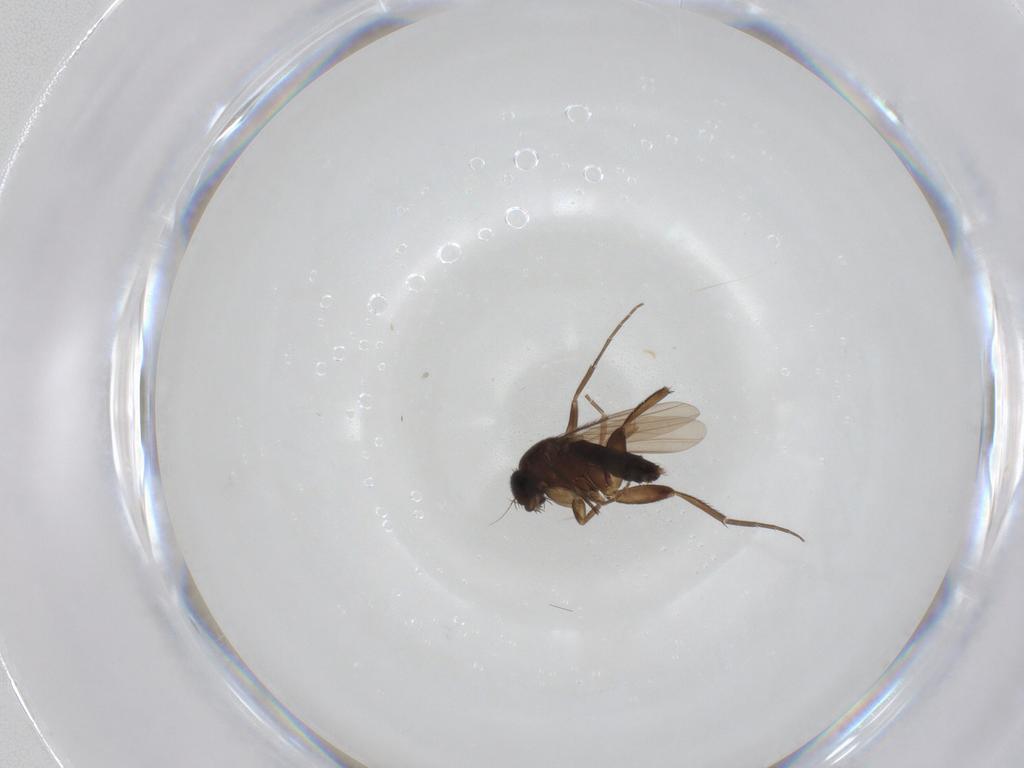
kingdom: Animalia
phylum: Arthropoda
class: Insecta
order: Diptera
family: Phoridae
